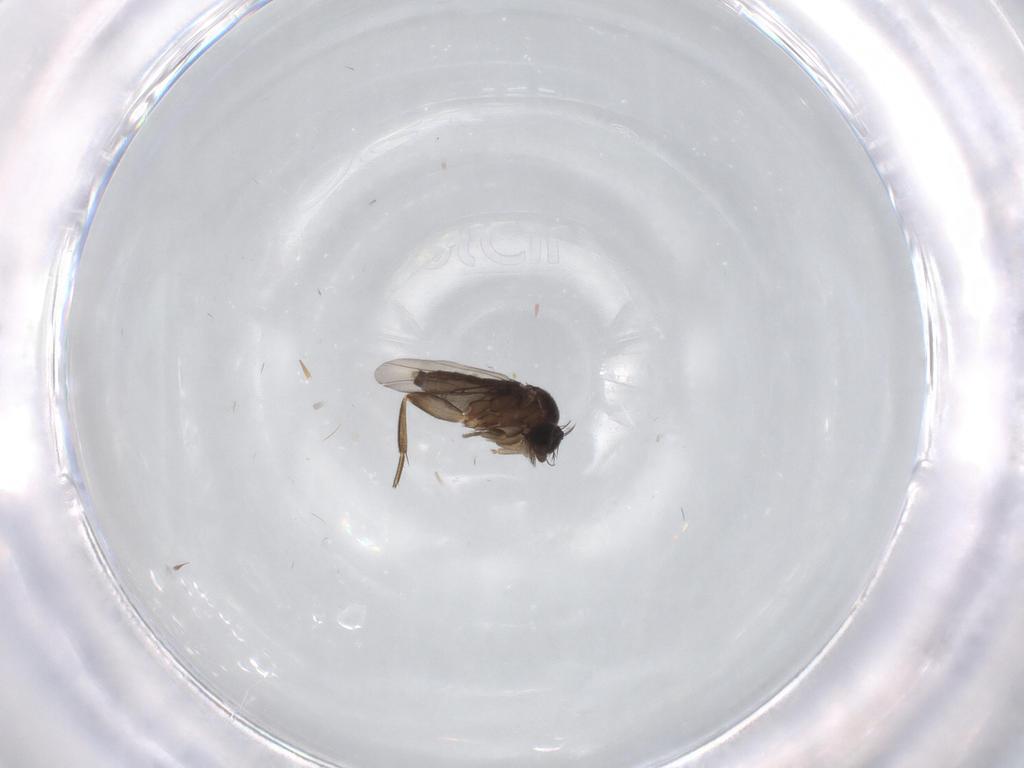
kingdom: Animalia
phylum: Arthropoda
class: Insecta
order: Diptera
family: Phoridae
